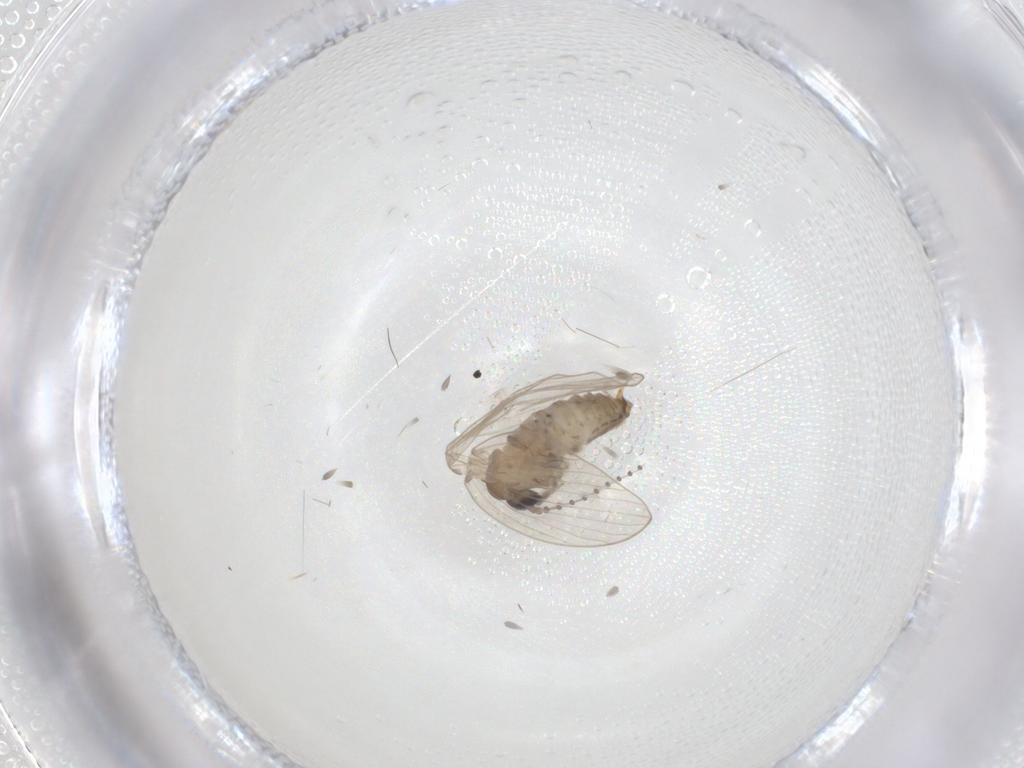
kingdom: Animalia
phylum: Arthropoda
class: Insecta
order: Diptera
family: Psychodidae
